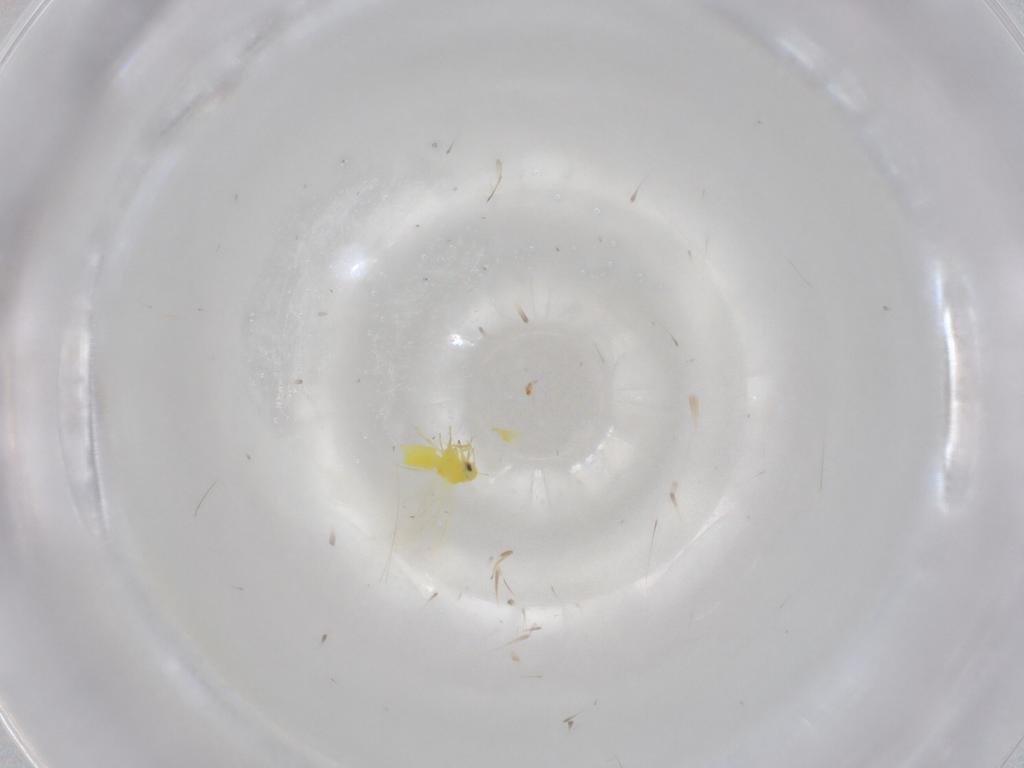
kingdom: Animalia
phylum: Arthropoda
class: Insecta
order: Hemiptera
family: Aleyrodidae
